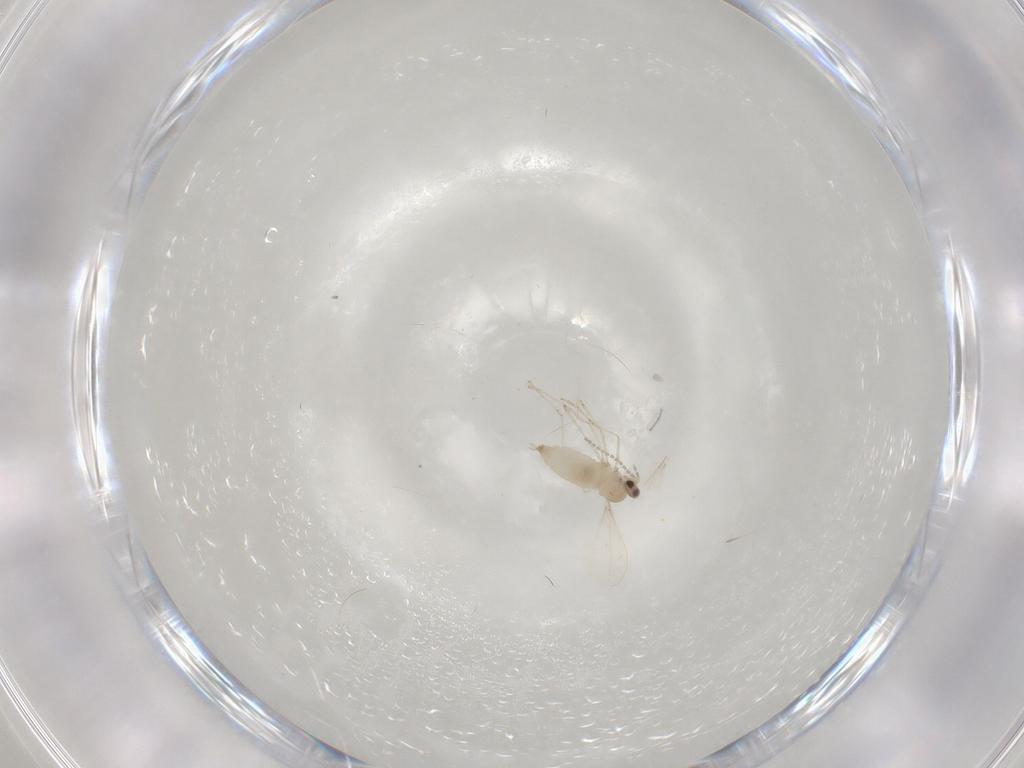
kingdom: Animalia
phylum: Arthropoda
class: Insecta
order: Diptera
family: Cecidomyiidae
